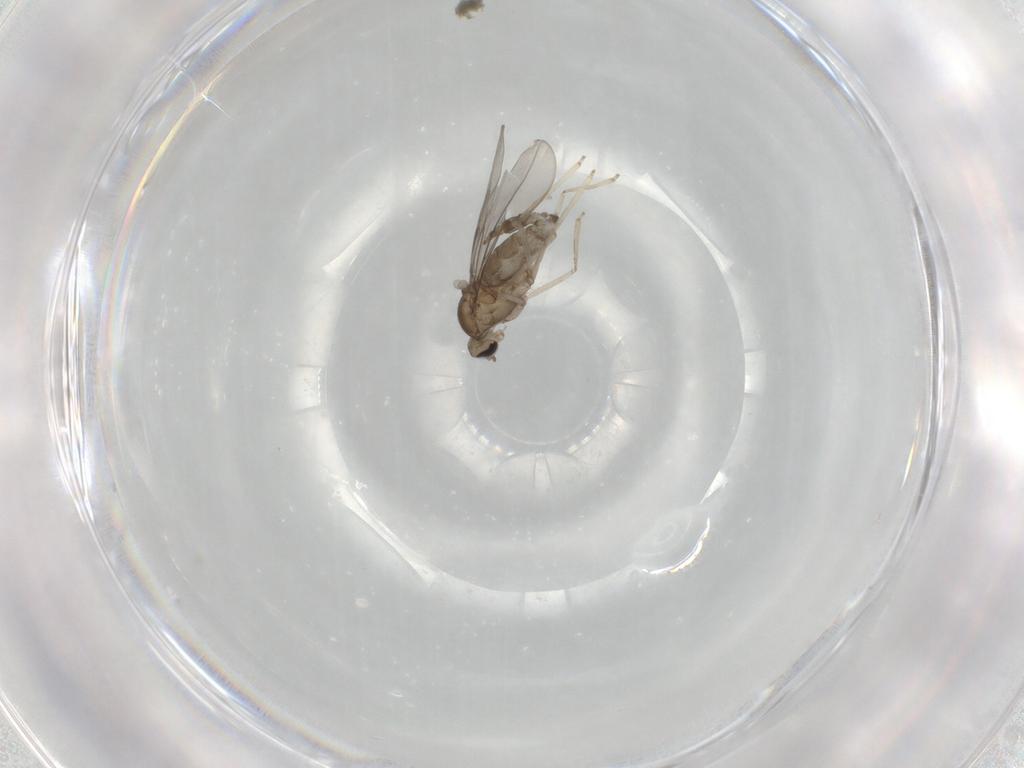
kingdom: Animalia
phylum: Arthropoda
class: Insecta
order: Diptera
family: Cecidomyiidae
